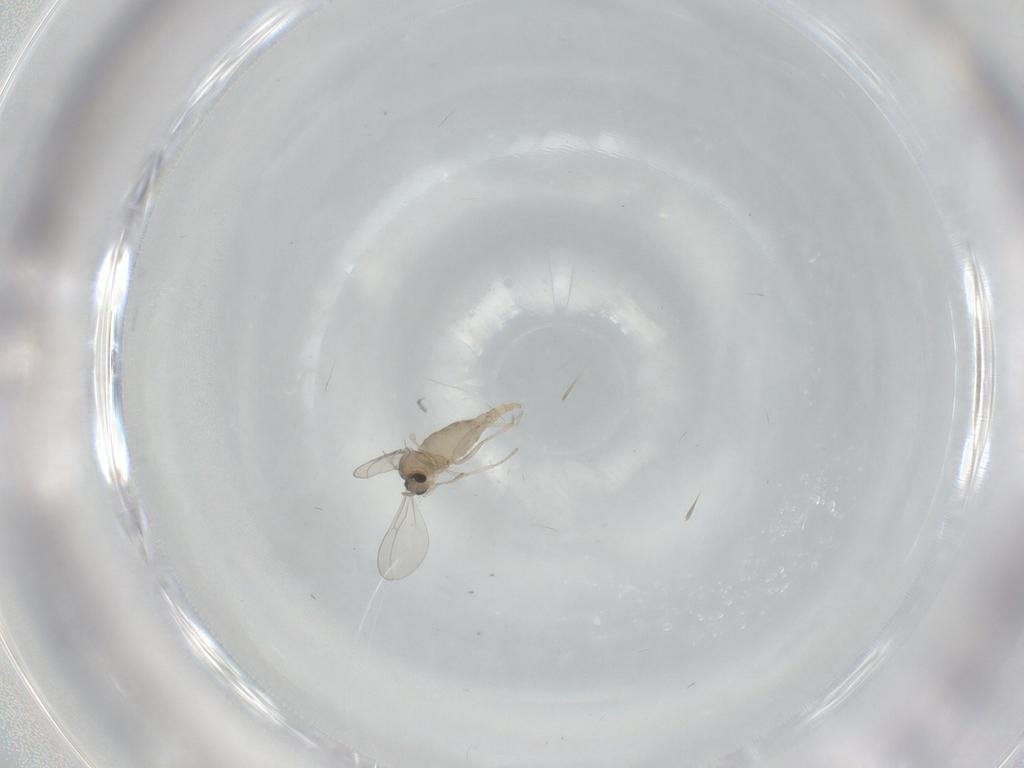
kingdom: Animalia
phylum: Arthropoda
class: Insecta
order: Diptera
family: Cecidomyiidae
